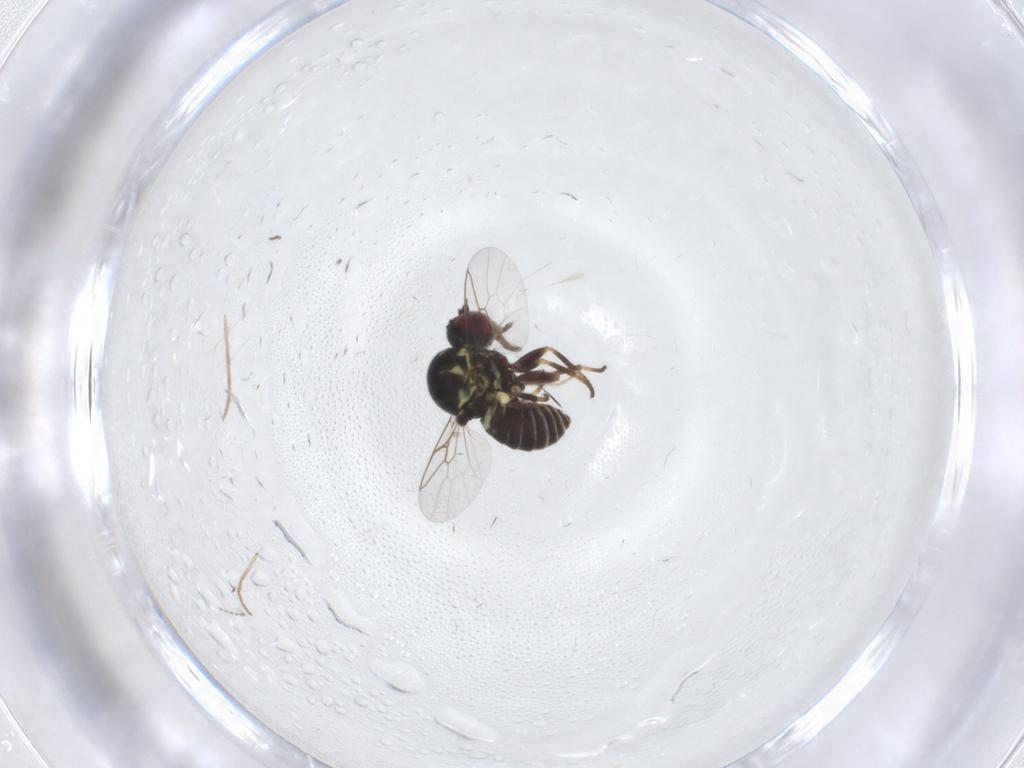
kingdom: Animalia
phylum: Arthropoda
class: Insecta
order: Diptera
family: Mythicomyiidae
